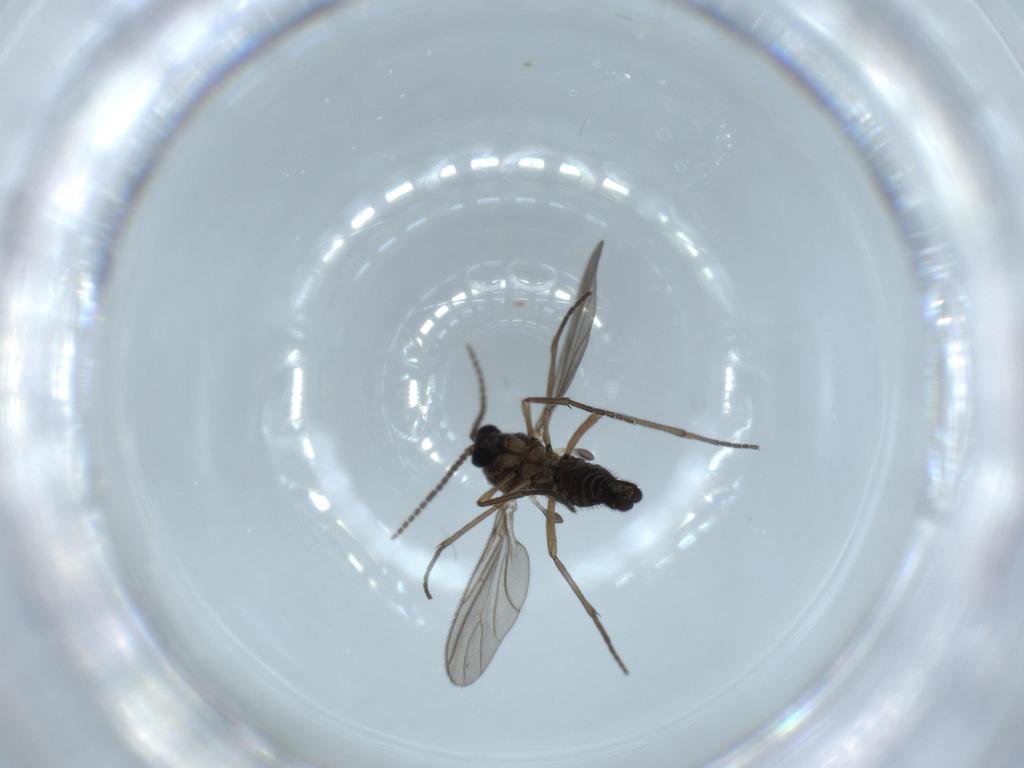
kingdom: Animalia
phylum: Arthropoda
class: Insecta
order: Diptera
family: Sciaridae
